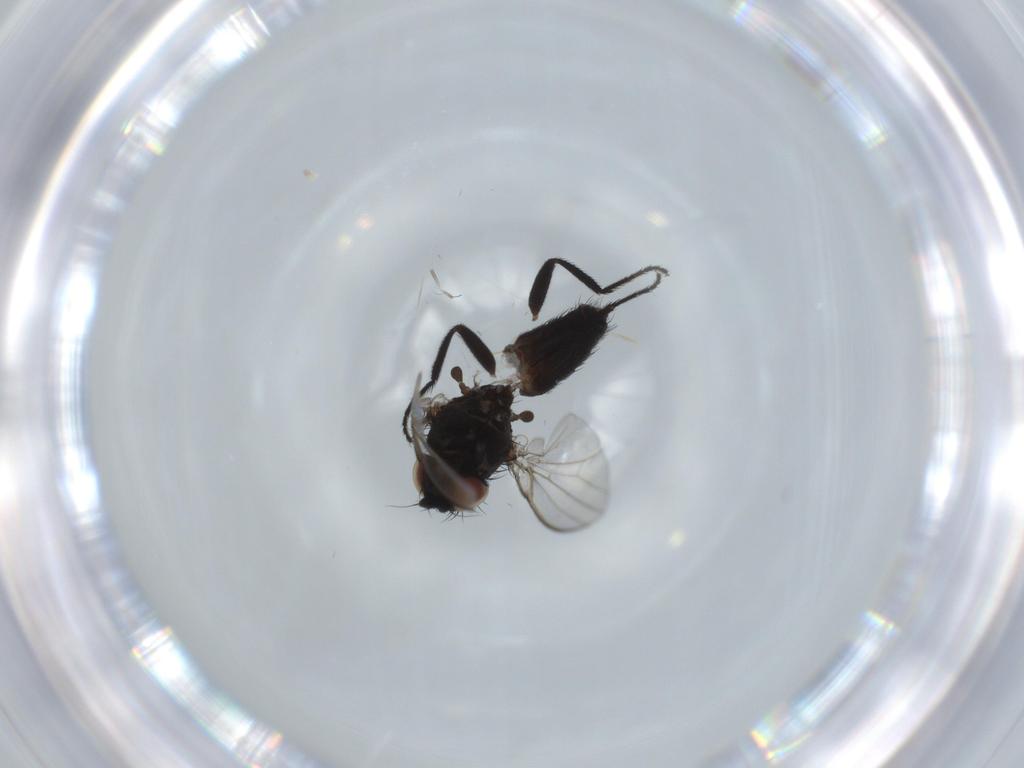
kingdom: Animalia
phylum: Arthropoda
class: Insecta
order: Diptera
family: Milichiidae
